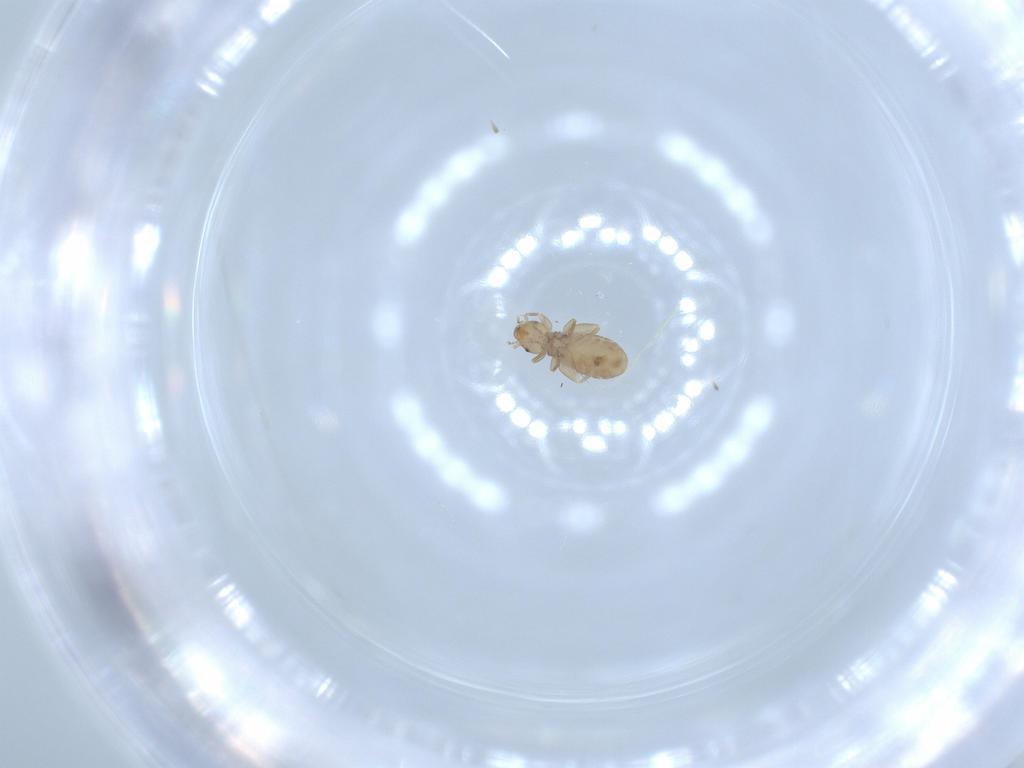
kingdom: Animalia
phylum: Arthropoda
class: Insecta
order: Psocodea
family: Liposcelididae
